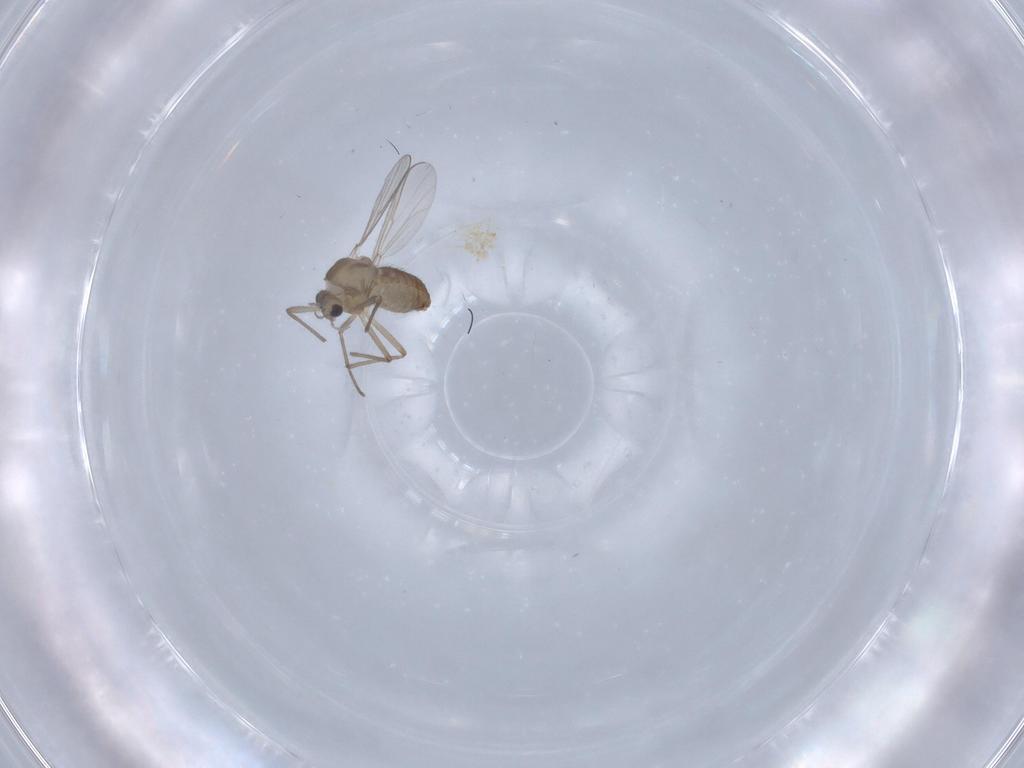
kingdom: Animalia
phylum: Arthropoda
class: Insecta
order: Diptera
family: Chironomidae
